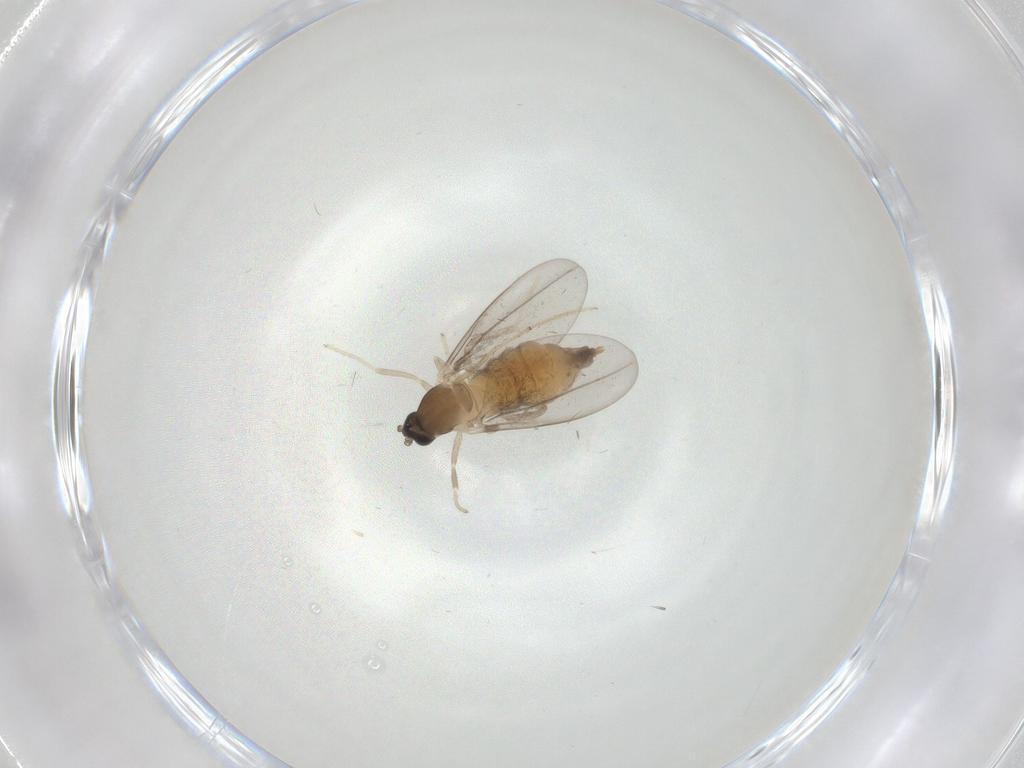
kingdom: Animalia
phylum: Arthropoda
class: Insecta
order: Diptera
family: Cecidomyiidae
